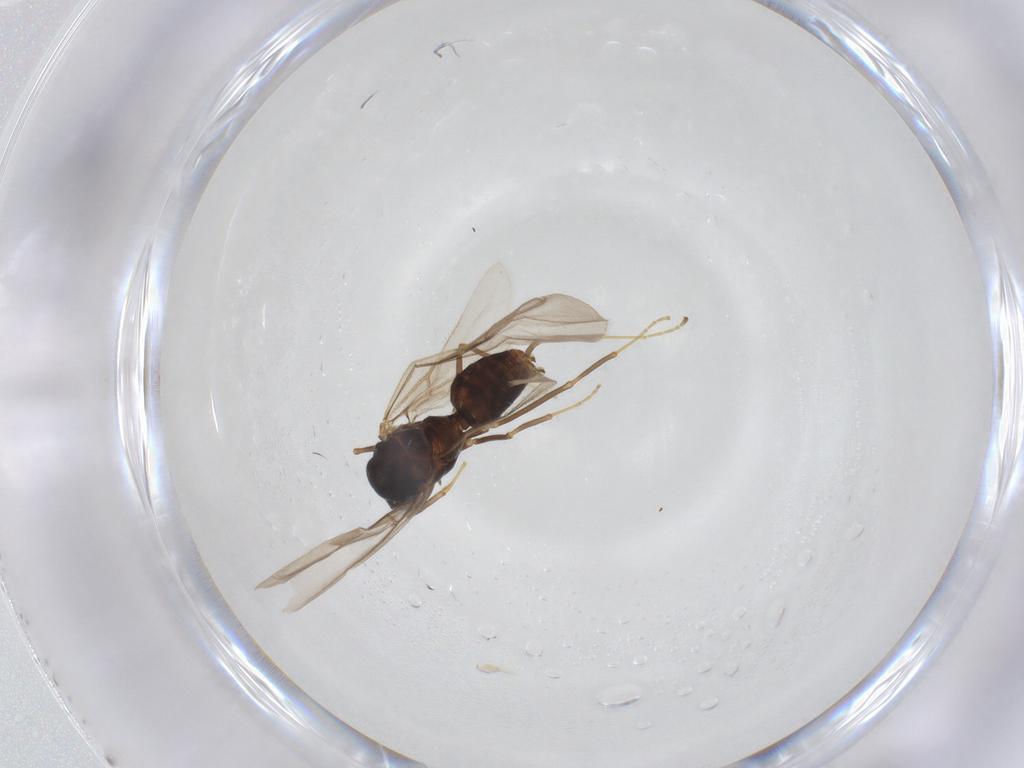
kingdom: Animalia
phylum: Arthropoda
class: Insecta
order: Hymenoptera
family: Formicidae
